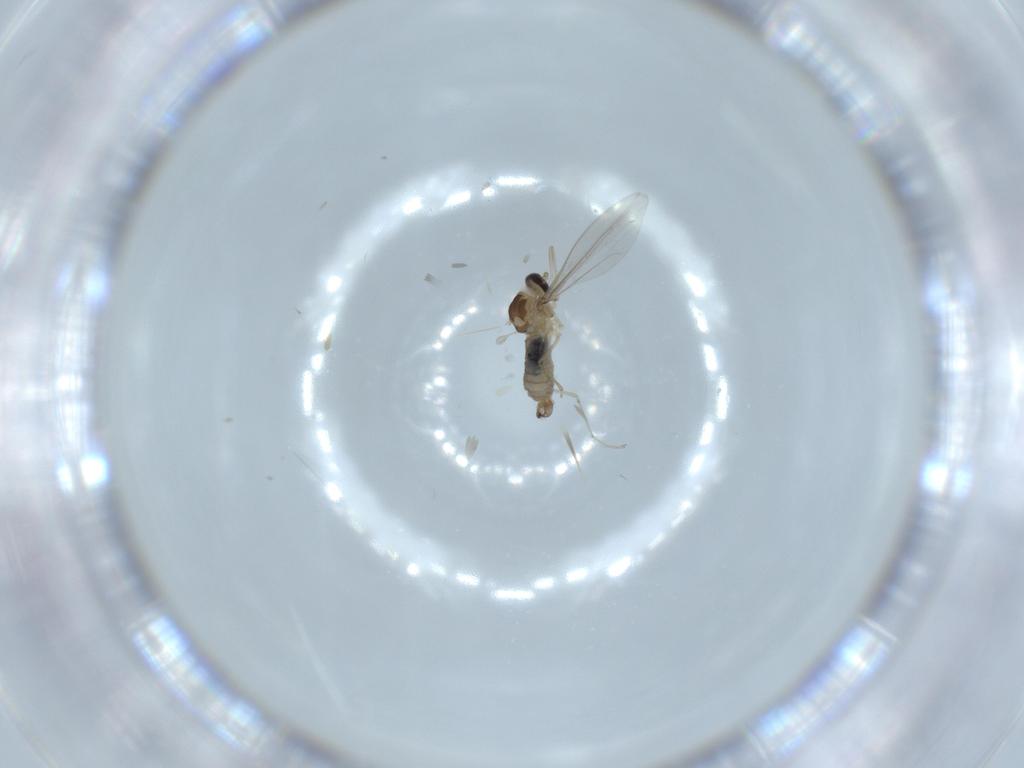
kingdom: Animalia
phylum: Arthropoda
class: Insecta
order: Diptera
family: Cecidomyiidae
